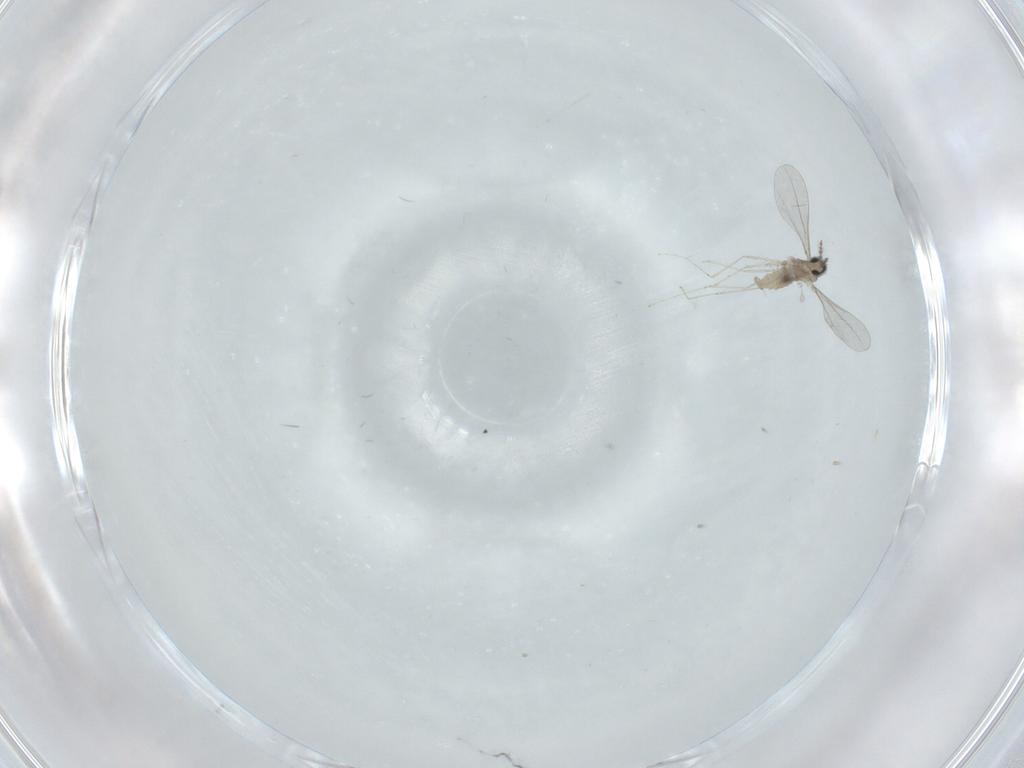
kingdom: Animalia
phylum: Arthropoda
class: Insecta
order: Diptera
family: Cecidomyiidae
